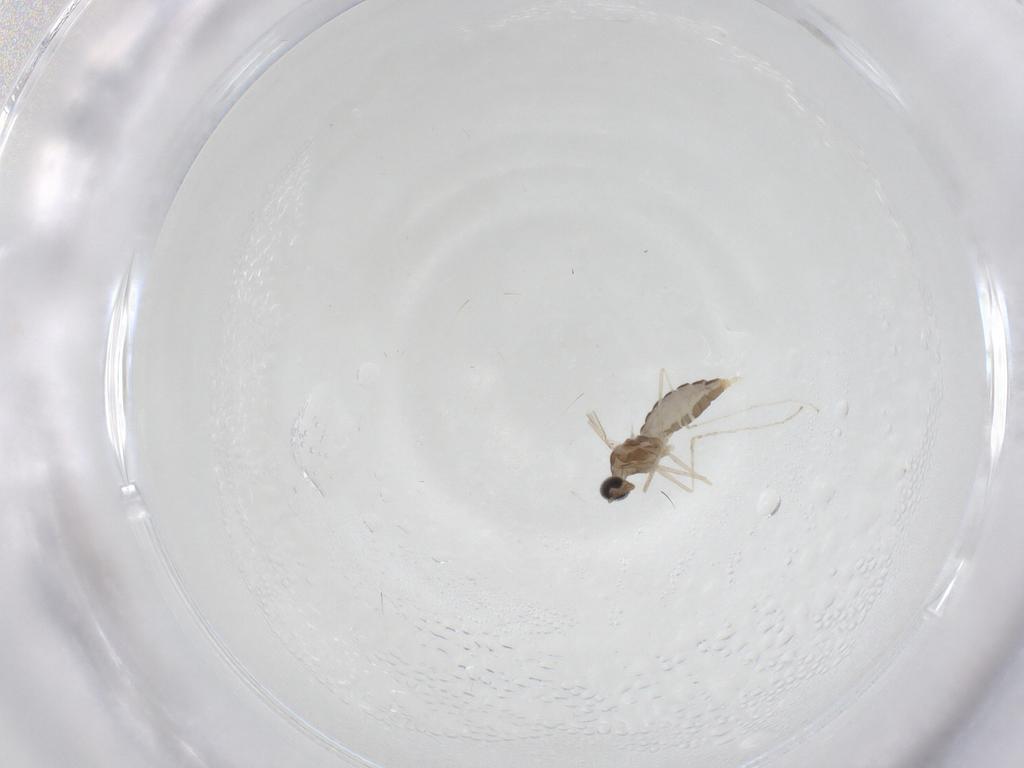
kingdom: Animalia
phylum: Arthropoda
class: Insecta
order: Diptera
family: Cecidomyiidae
